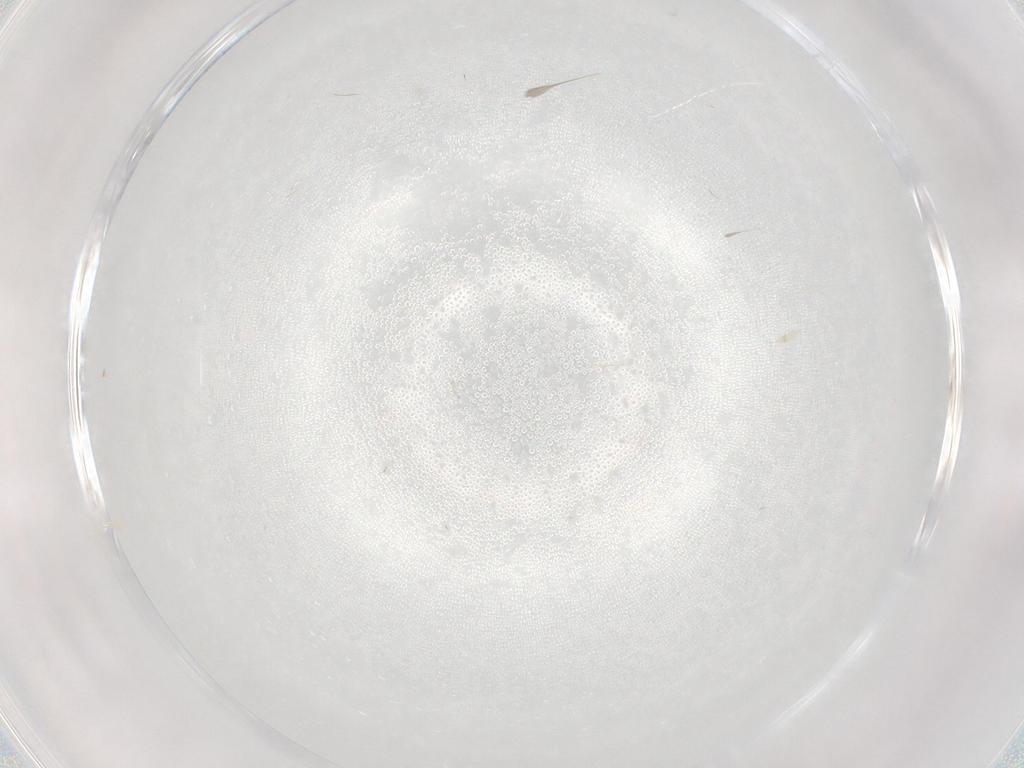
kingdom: Animalia
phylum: Arthropoda
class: Insecta
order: Hymenoptera
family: Mymaridae
